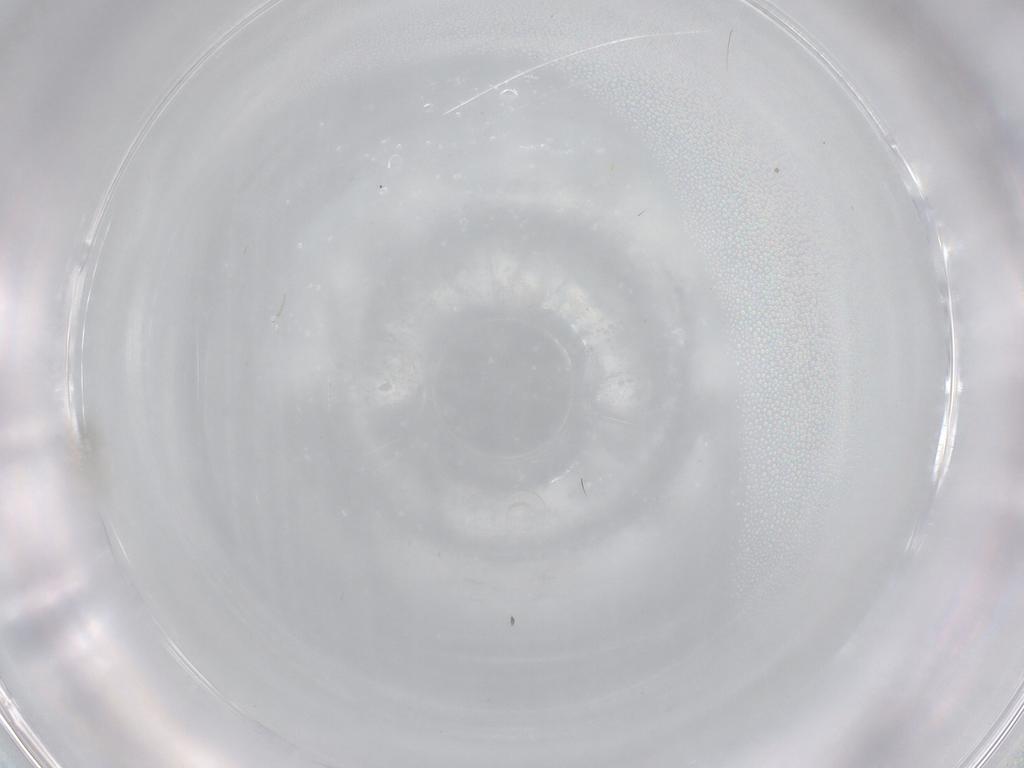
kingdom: Animalia
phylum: Arthropoda
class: Insecta
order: Diptera
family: Cecidomyiidae
